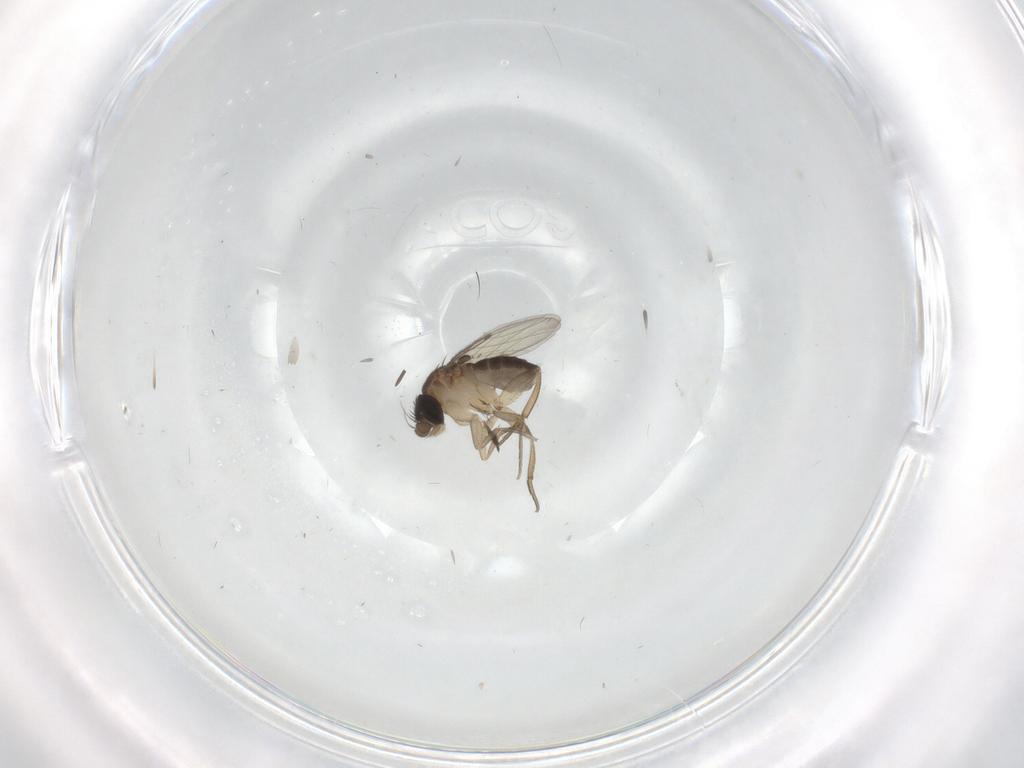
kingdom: Animalia
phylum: Arthropoda
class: Insecta
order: Diptera
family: Phoridae
